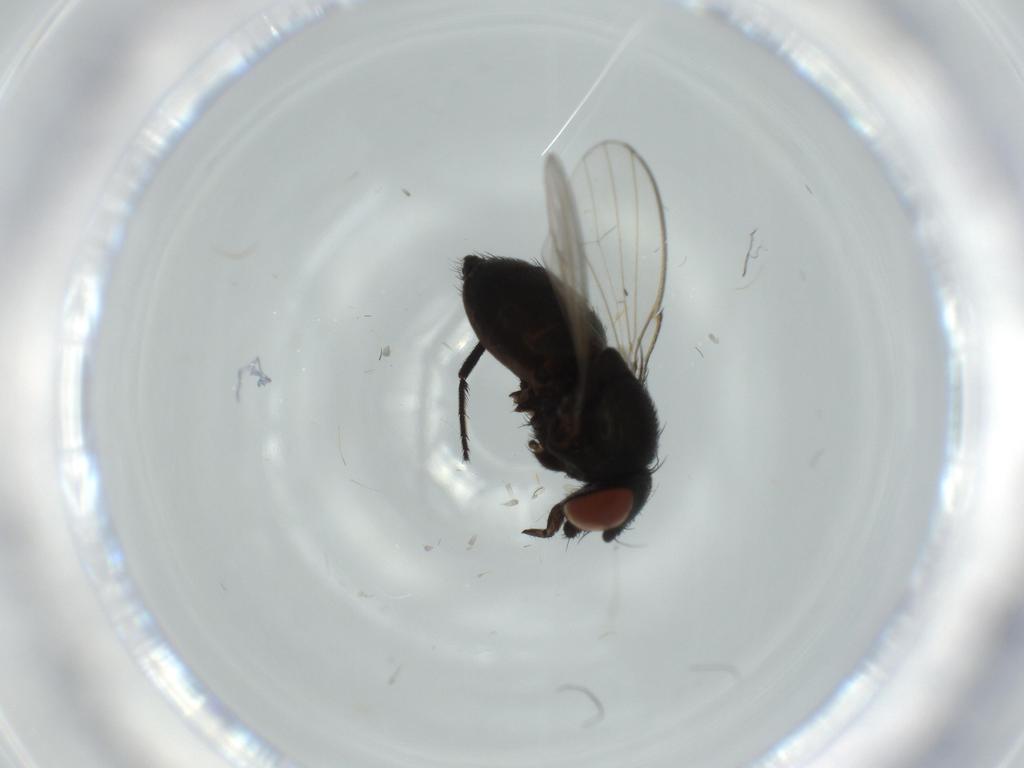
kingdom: Animalia
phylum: Arthropoda
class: Insecta
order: Diptera
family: Milichiidae
